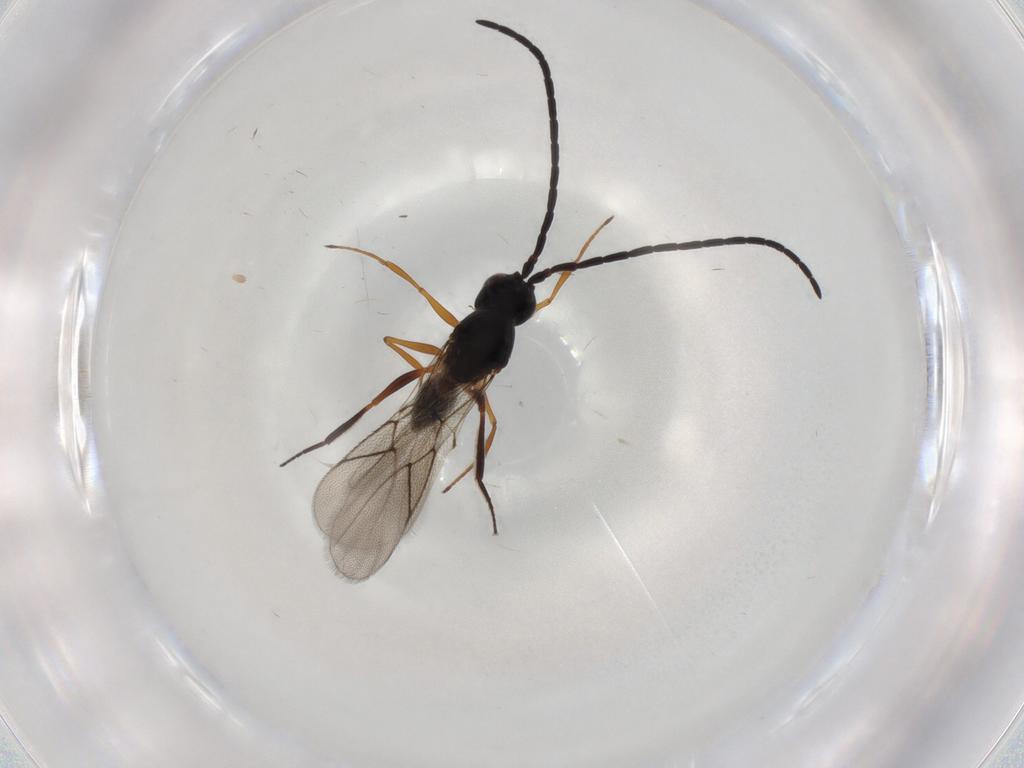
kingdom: Animalia
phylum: Arthropoda
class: Insecta
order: Hymenoptera
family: Figitidae
